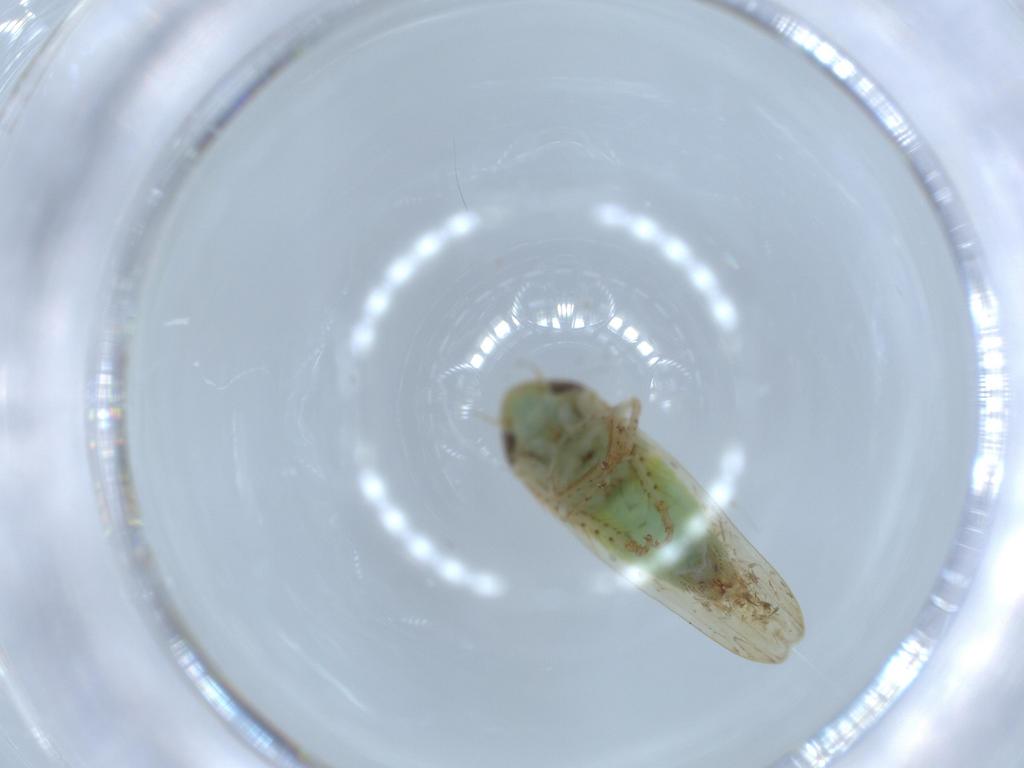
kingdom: Animalia
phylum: Arthropoda
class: Insecta
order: Hemiptera
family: Cicadellidae
